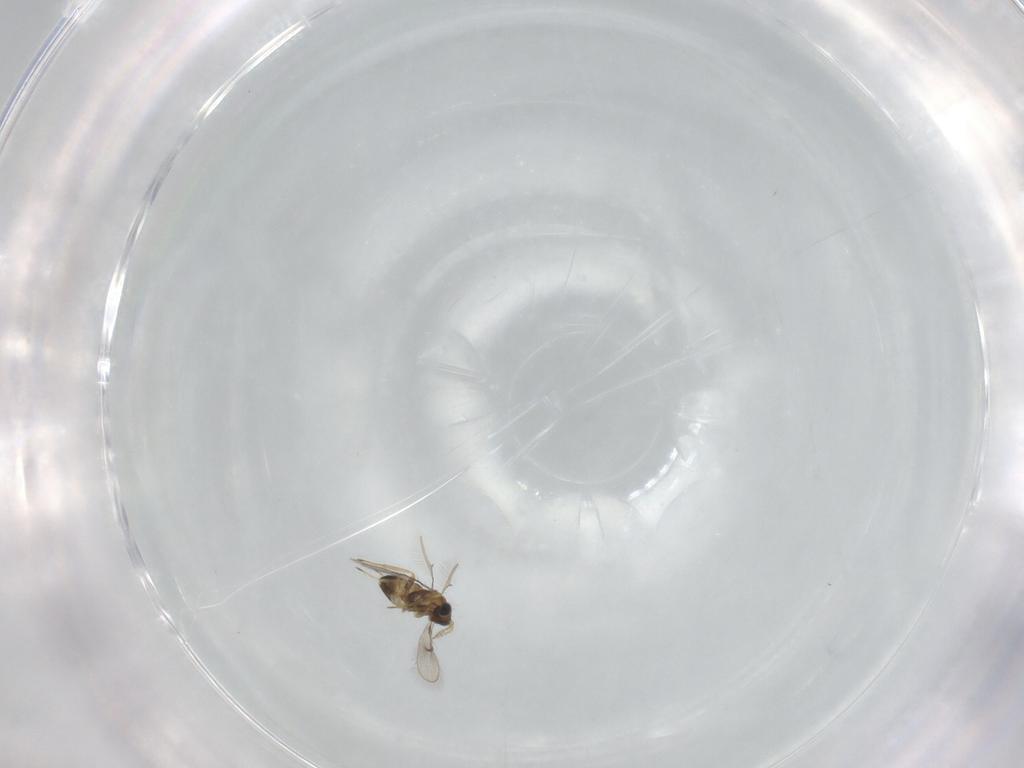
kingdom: Animalia
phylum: Arthropoda
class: Insecta
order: Hymenoptera
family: Trichogrammatidae
